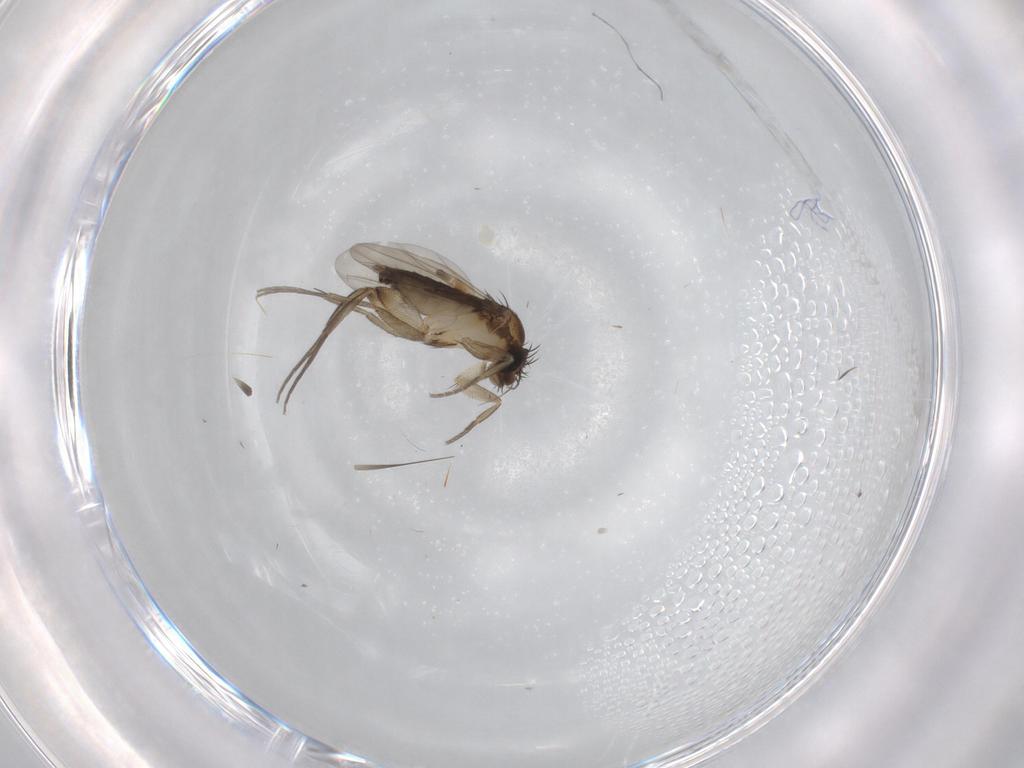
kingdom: Animalia
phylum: Arthropoda
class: Insecta
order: Diptera
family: Phoridae
